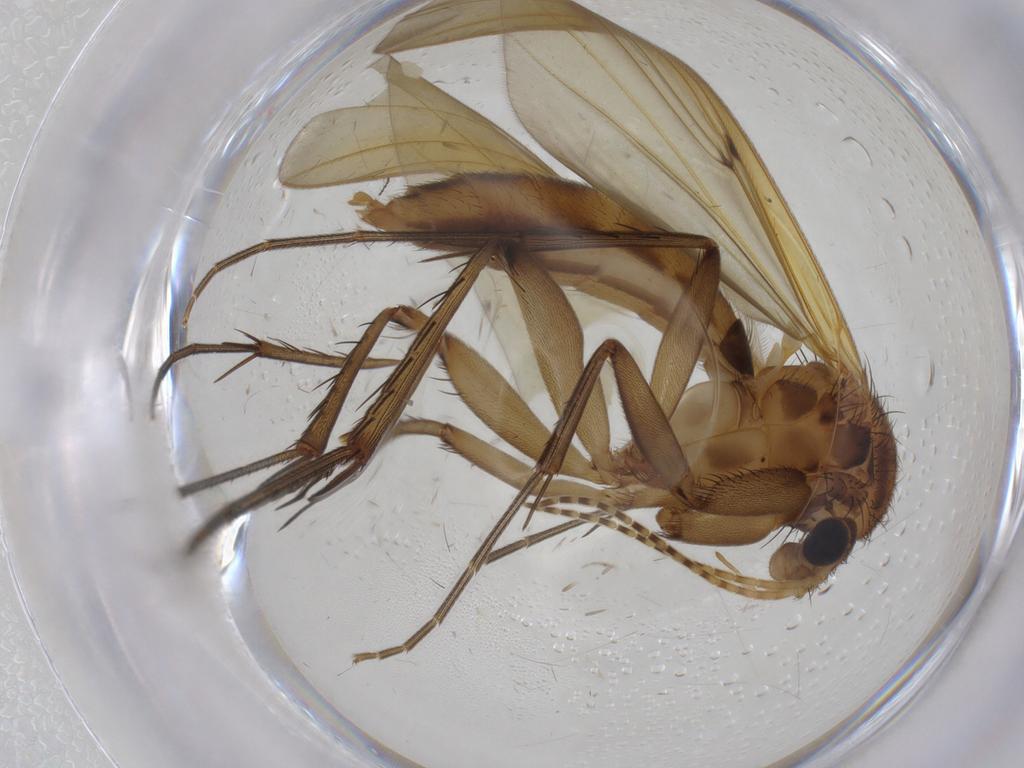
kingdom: Animalia
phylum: Arthropoda
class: Insecta
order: Diptera
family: Ceratopogonidae
